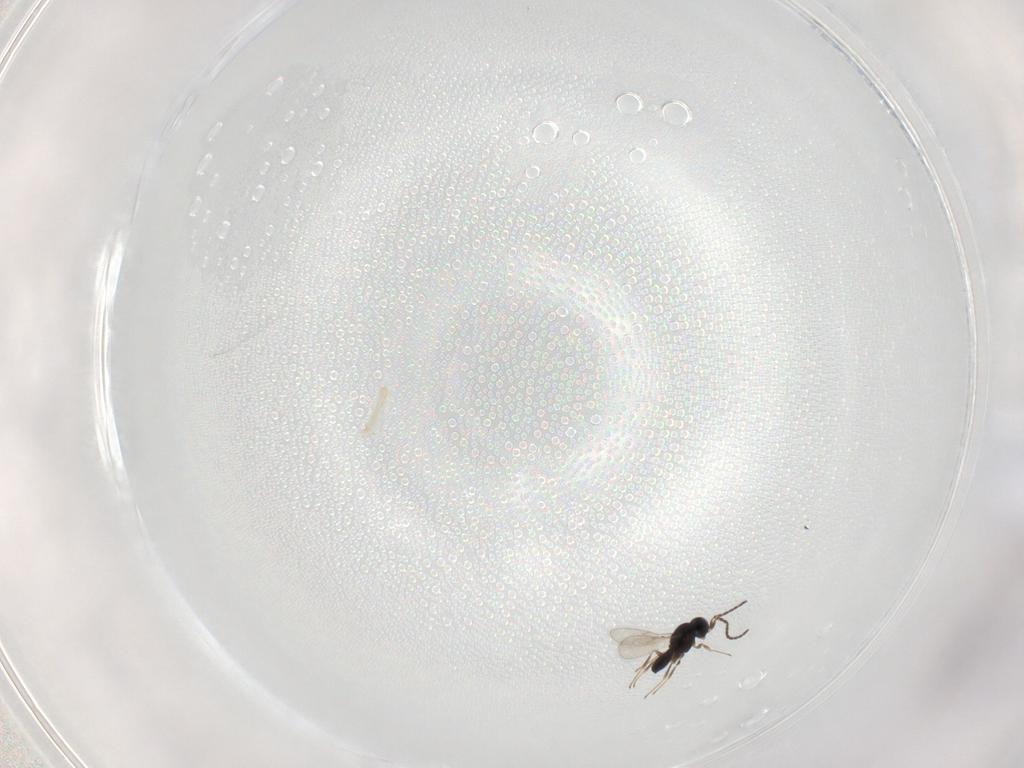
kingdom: Animalia
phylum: Arthropoda
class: Insecta
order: Hymenoptera
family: Scelionidae
